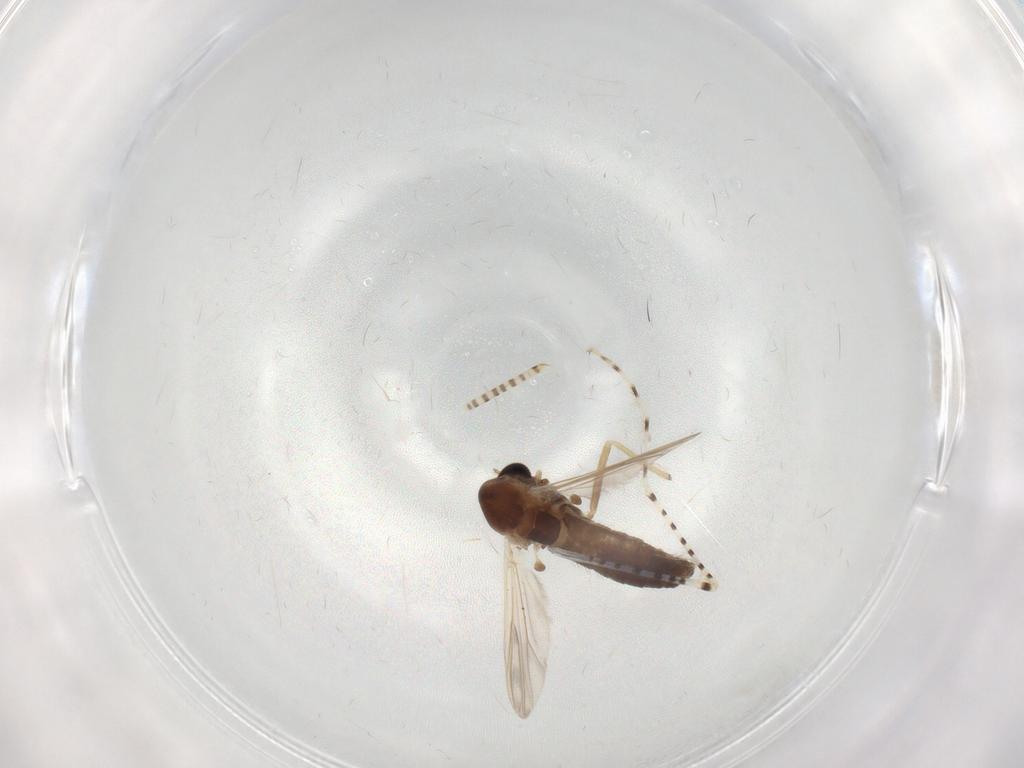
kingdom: Animalia
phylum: Arthropoda
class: Insecta
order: Diptera
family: Chironomidae
